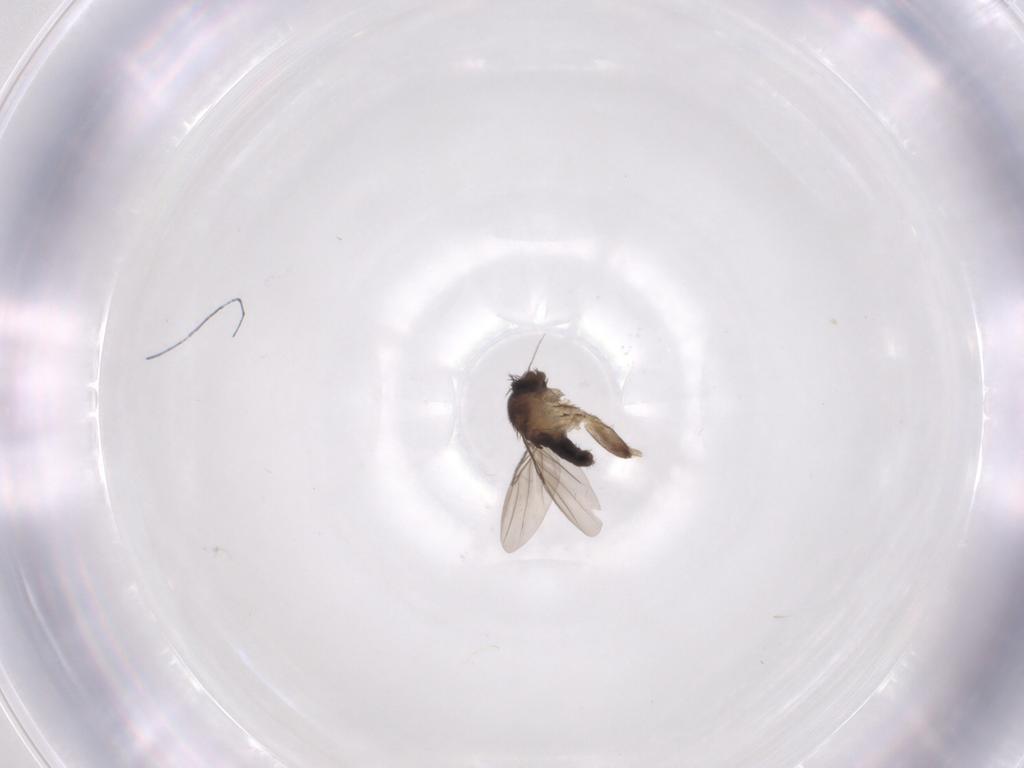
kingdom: Animalia
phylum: Arthropoda
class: Insecta
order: Diptera
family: Phoridae
